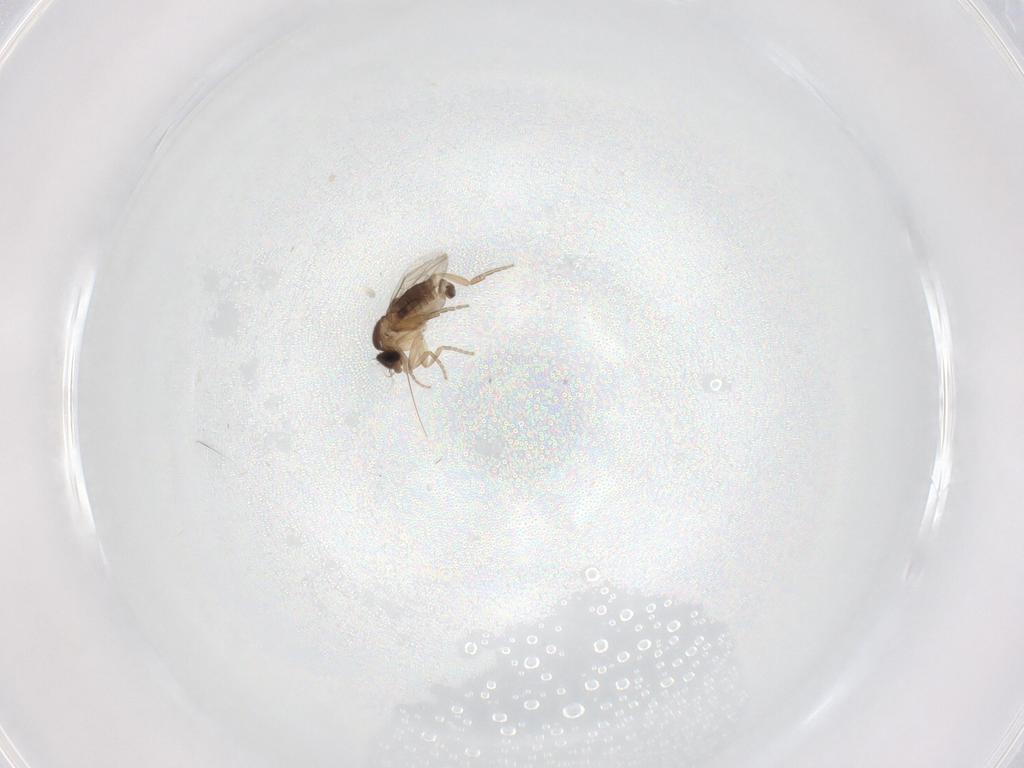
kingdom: Animalia
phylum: Arthropoda
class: Insecta
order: Diptera
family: Phoridae
